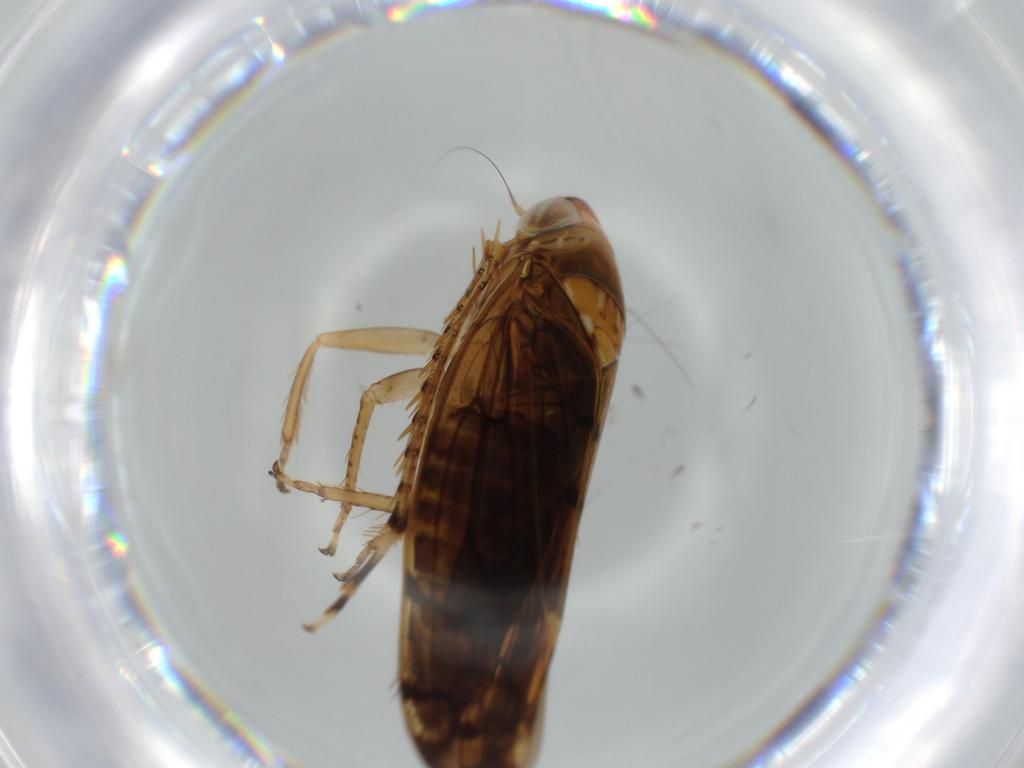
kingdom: Animalia
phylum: Arthropoda
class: Insecta
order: Hemiptera
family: Cicadellidae
